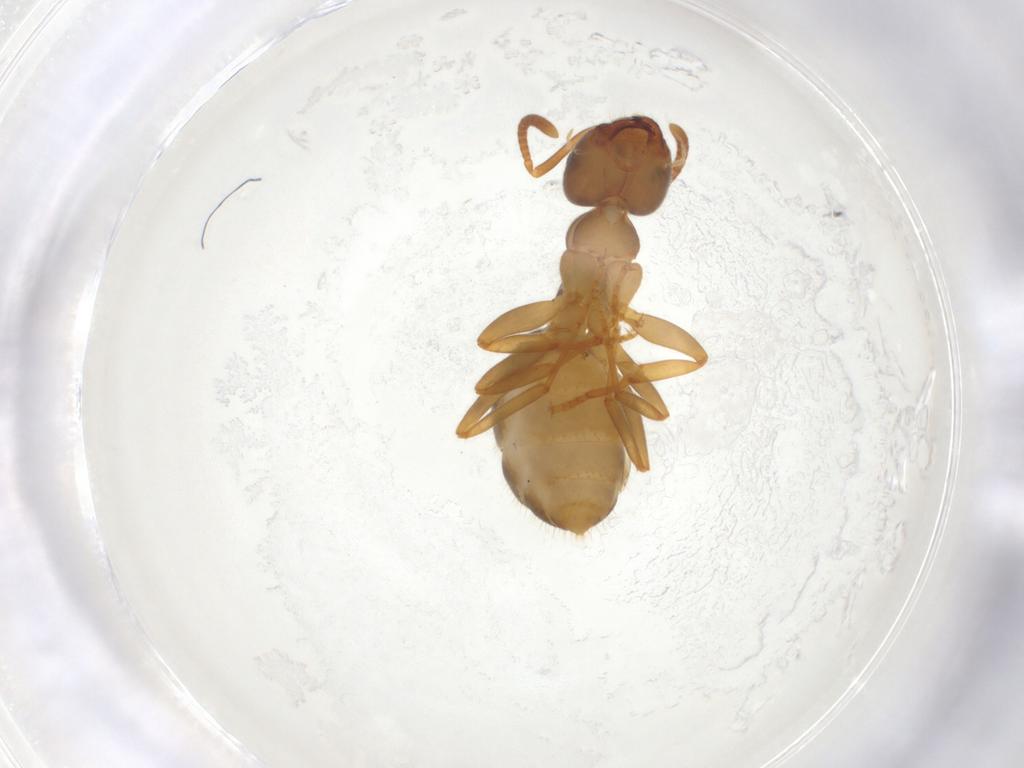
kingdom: Animalia
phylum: Arthropoda
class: Insecta
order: Hymenoptera
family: Formicidae
